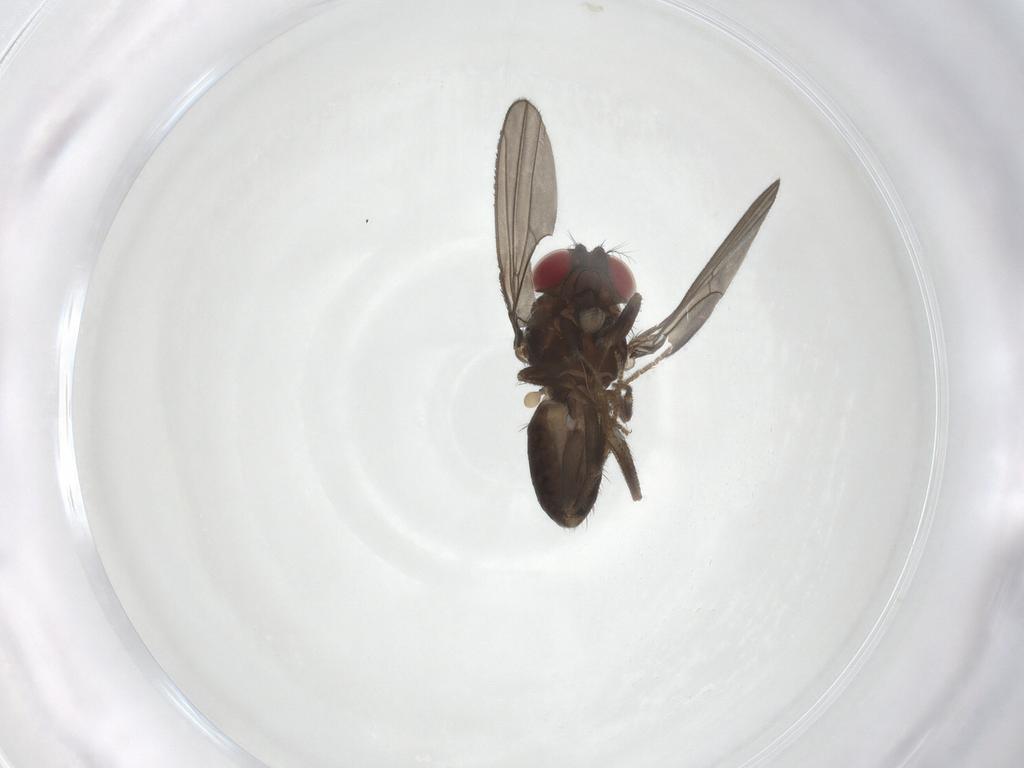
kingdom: Animalia
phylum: Arthropoda
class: Insecta
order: Diptera
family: Drosophilidae
